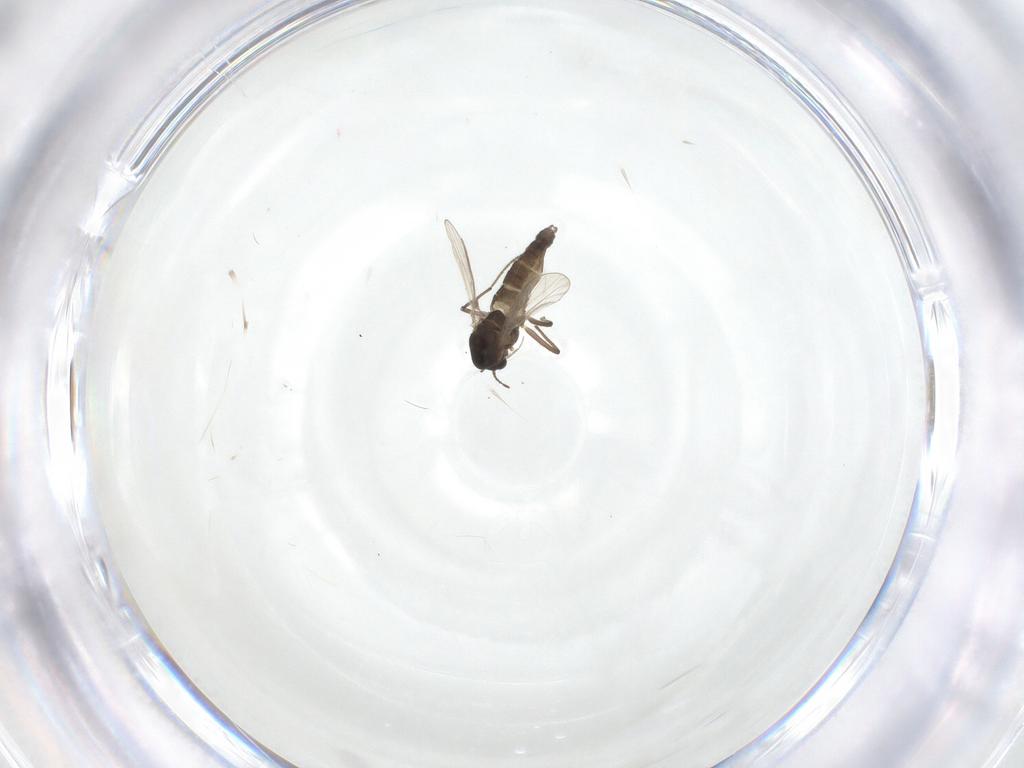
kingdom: Animalia
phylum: Arthropoda
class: Insecta
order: Diptera
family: Chironomidae
